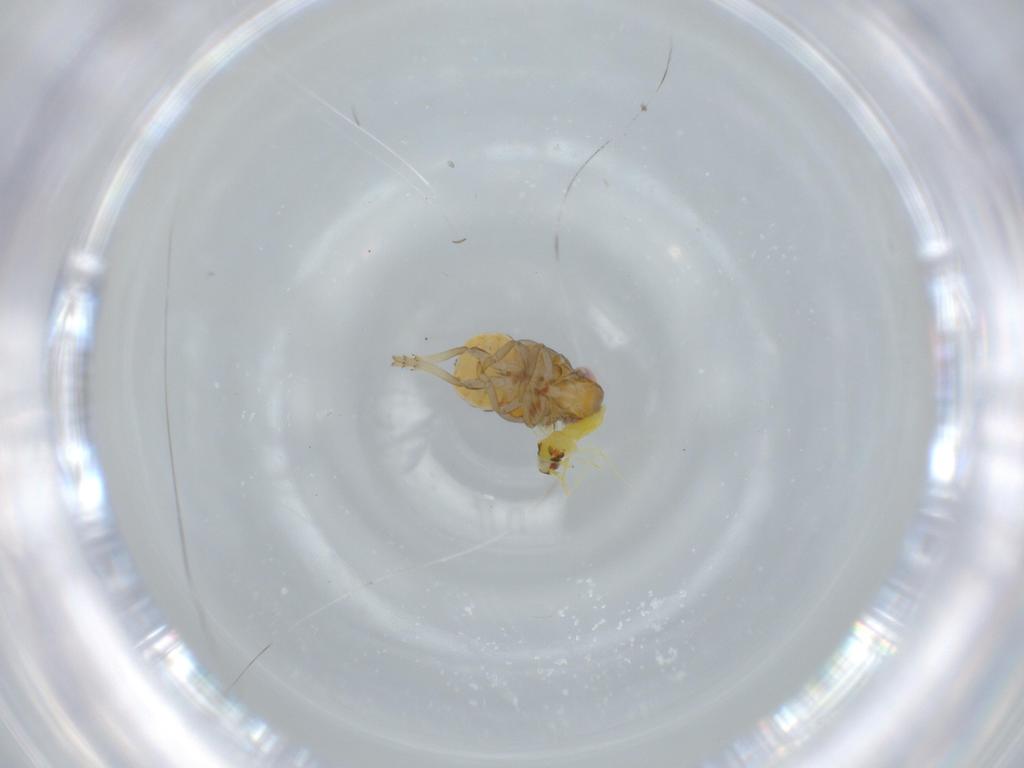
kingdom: Animalia
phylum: Arthropoda
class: Insecta
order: Hemiptera
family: Issidae
